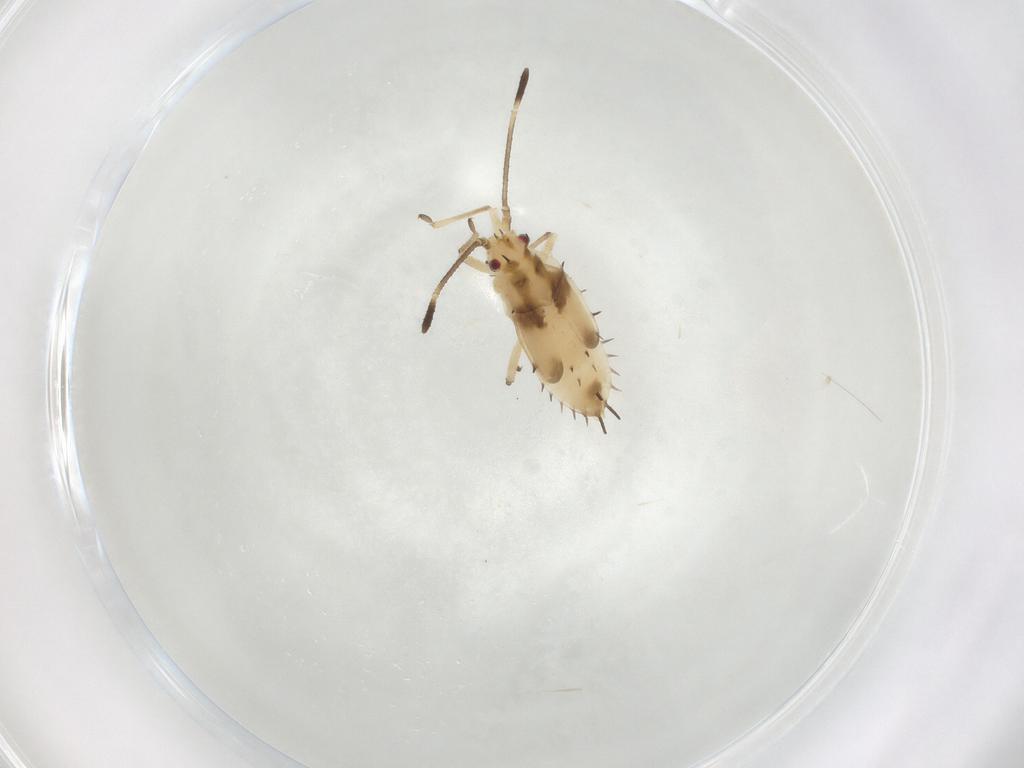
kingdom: Animalia
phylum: Arthropoda
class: Insecta
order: Hemiptera
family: Tingidae
